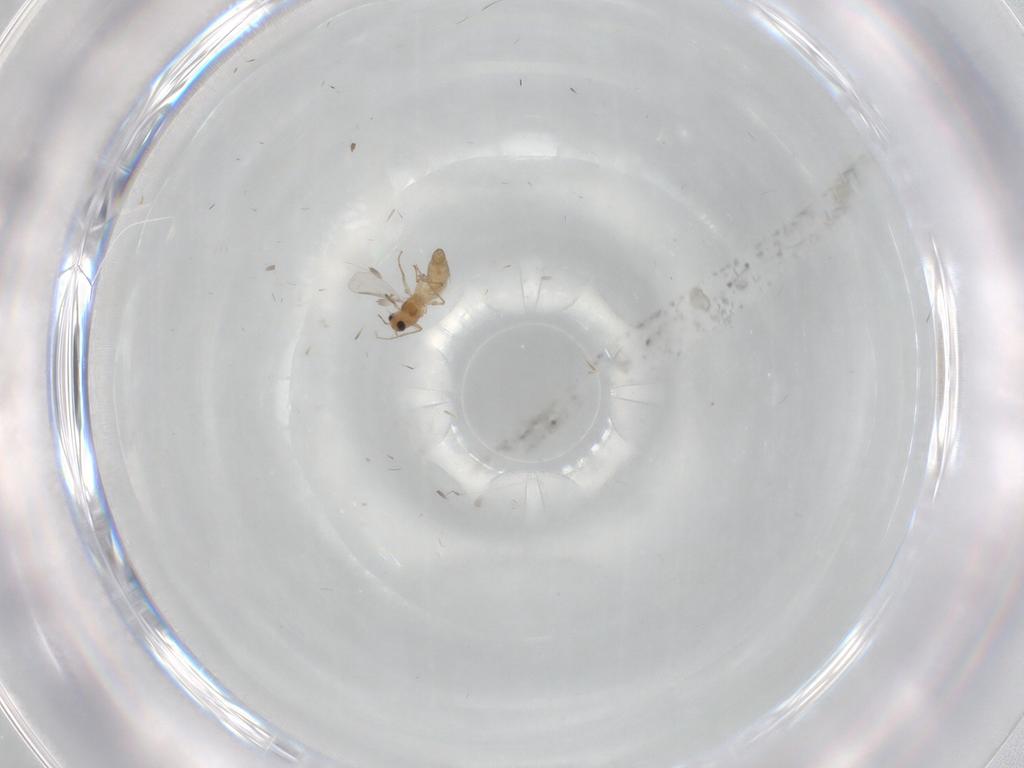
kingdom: Animalia
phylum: Arthropoda
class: Insecta
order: Diptera
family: Chironomidae
